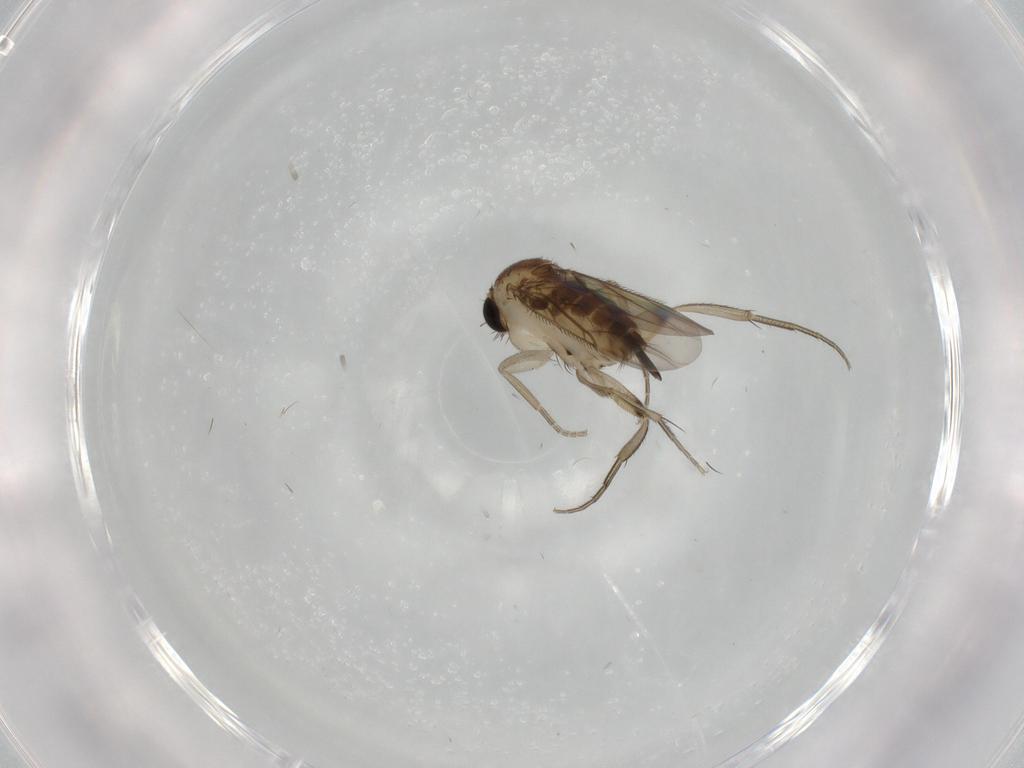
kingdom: Animalia
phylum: Arthropoda
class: Insecta
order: Diptera
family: Phoridae
